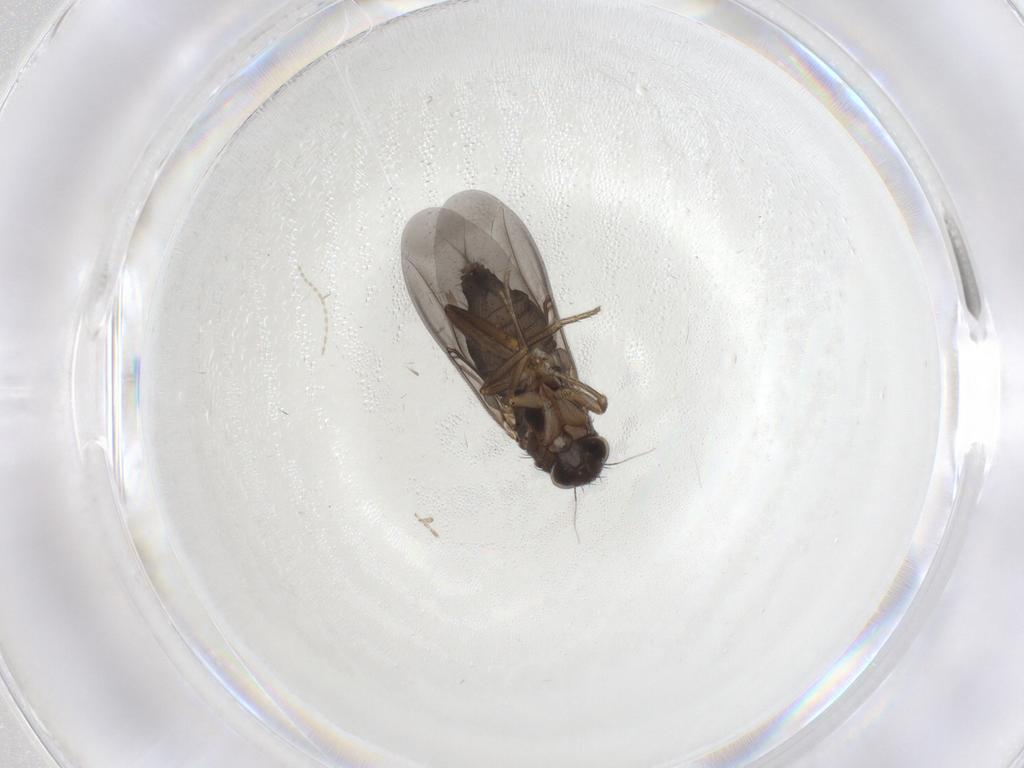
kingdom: Animalia
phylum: Arthropoda
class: Insecta
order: Diptera
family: Phoridae
